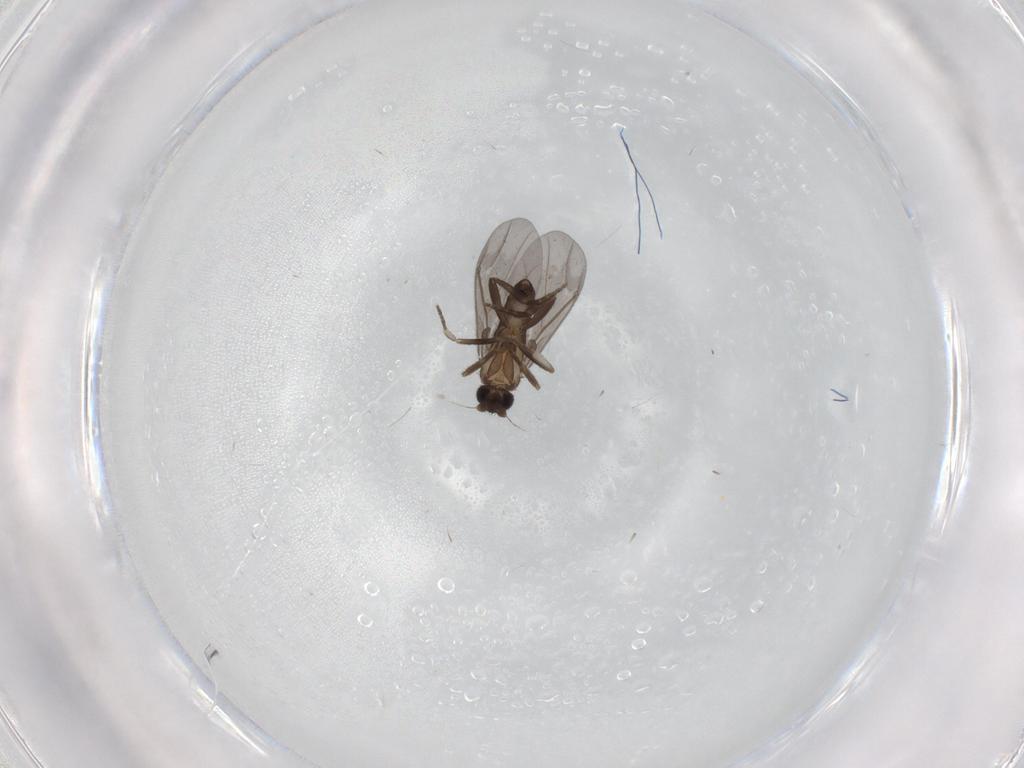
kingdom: Animalia
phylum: Arthropoda
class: Insecta
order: Diptera
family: Phoridae
